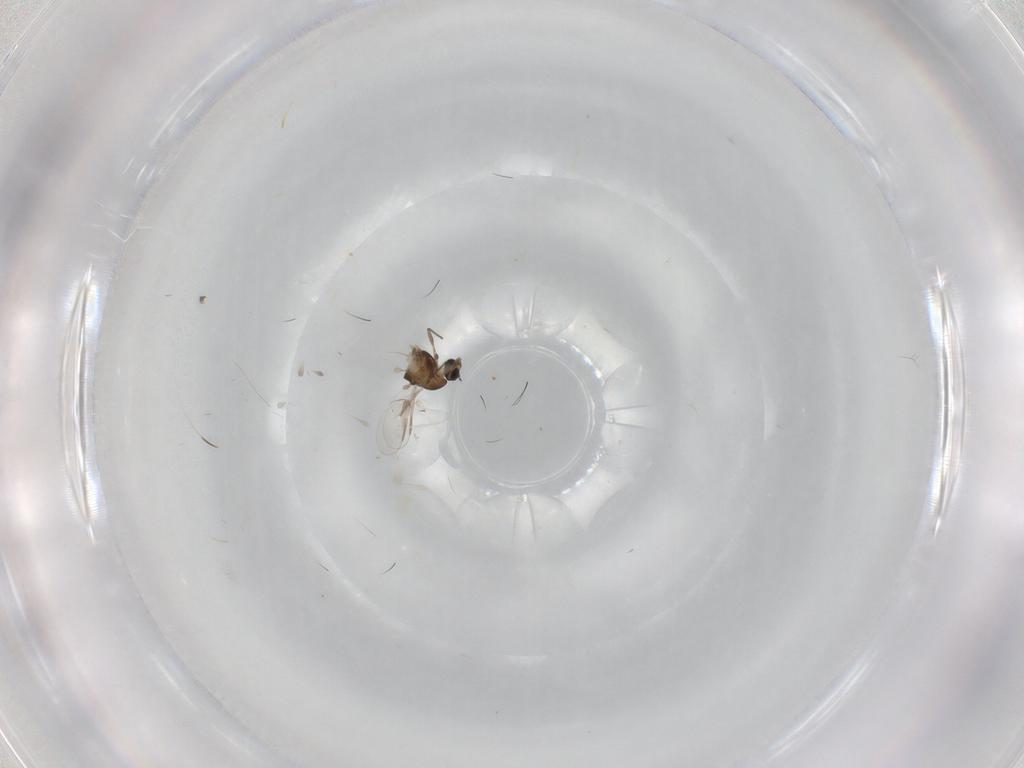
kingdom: Animalia
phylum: Arthropoda
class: Insecta
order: Diptera
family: Chironomidae
